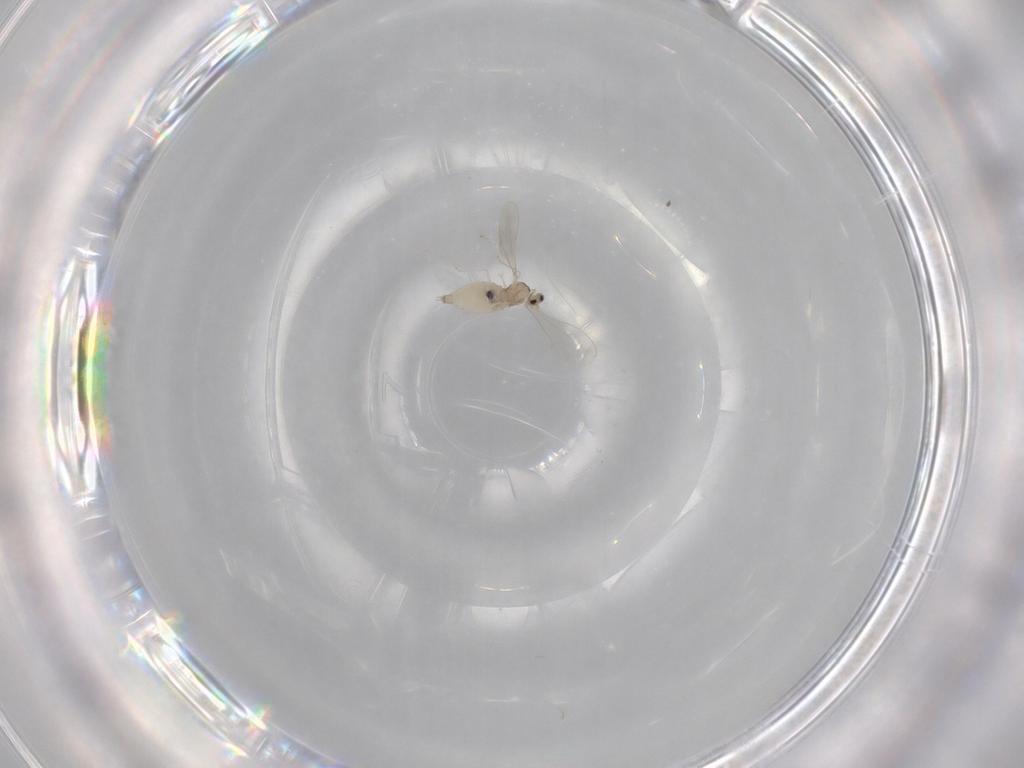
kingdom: Animalia
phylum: Arthropoda
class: Insecta
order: Diptera
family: Cecidomyiidae
